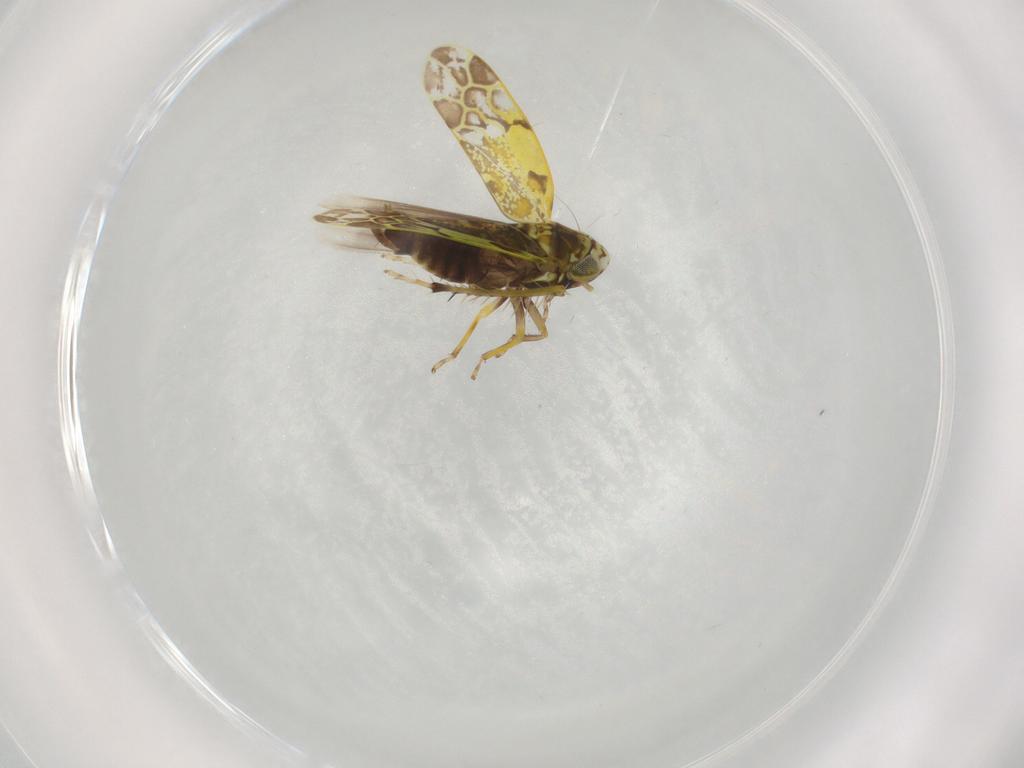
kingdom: Animalia
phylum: Arthropoda
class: Insecta
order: Hemiptera
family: Cicadellidae
